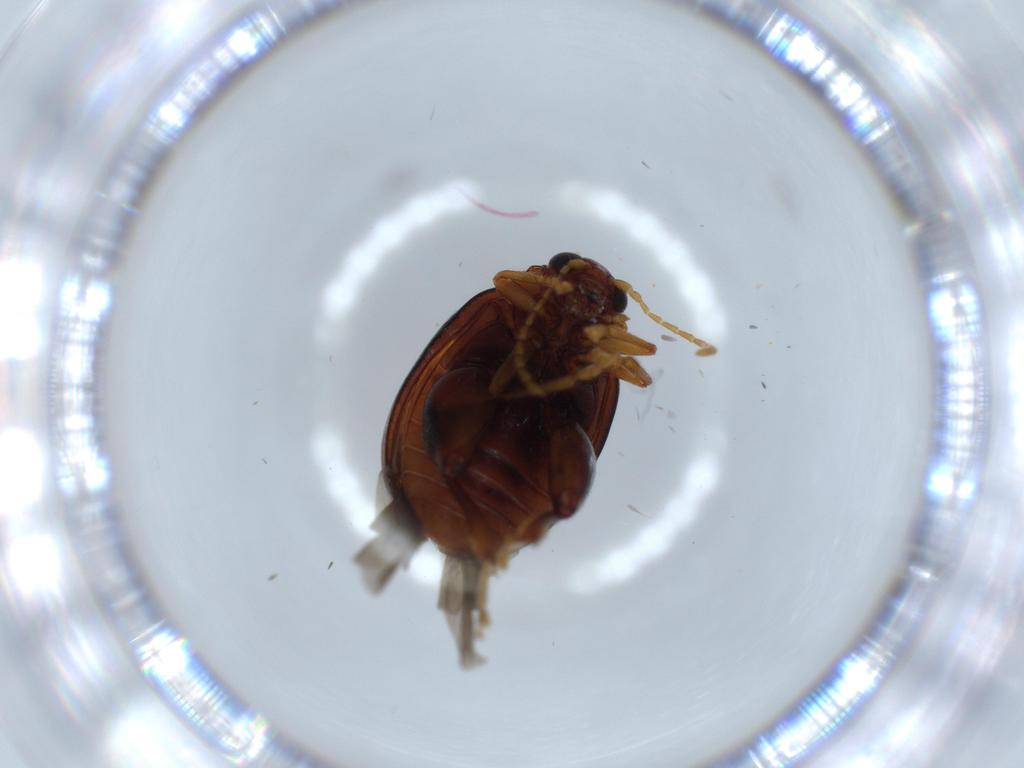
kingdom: Animalia
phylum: Arthropoda
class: Insecta
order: Coleoptera
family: Chrysomelidae
